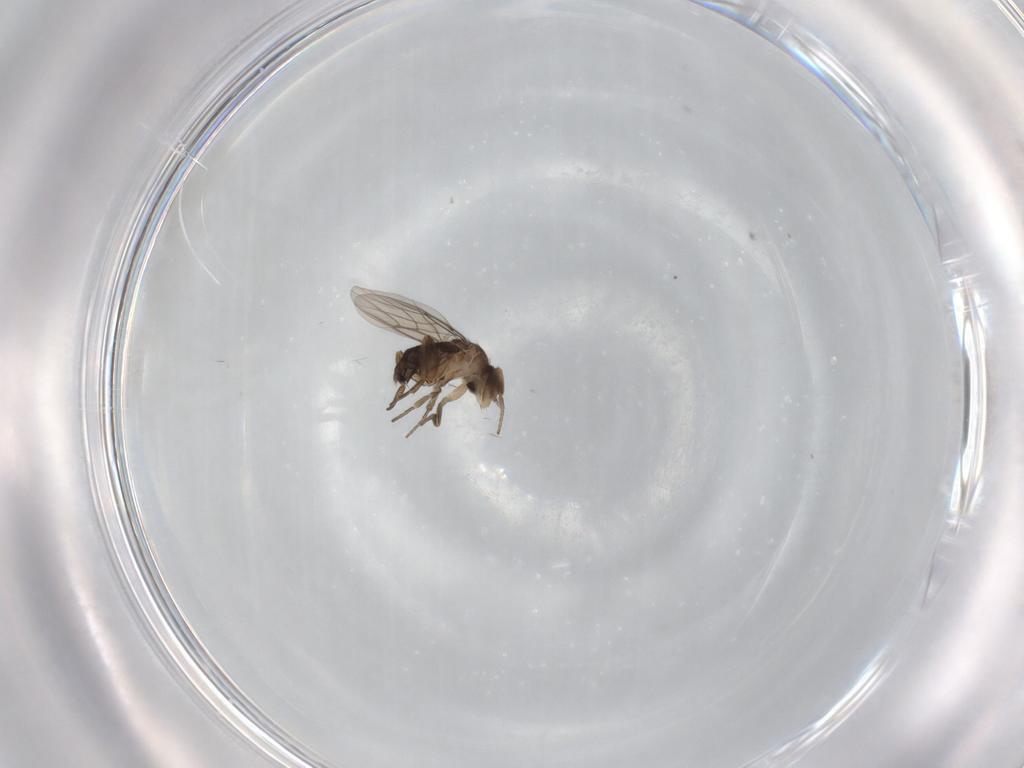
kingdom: Animalia
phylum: Arthropoda
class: Insecta
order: Diptera
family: Phoridae
